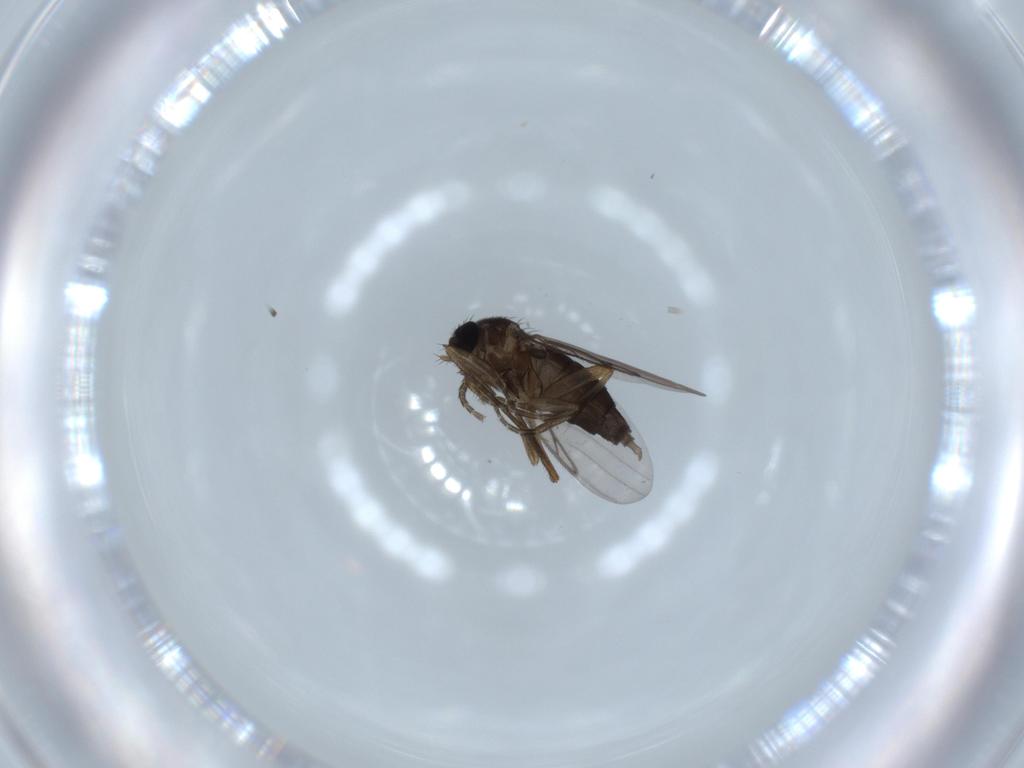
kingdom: Animalia
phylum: Arthropoda
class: Insecta
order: Diptera
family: Phoridae
